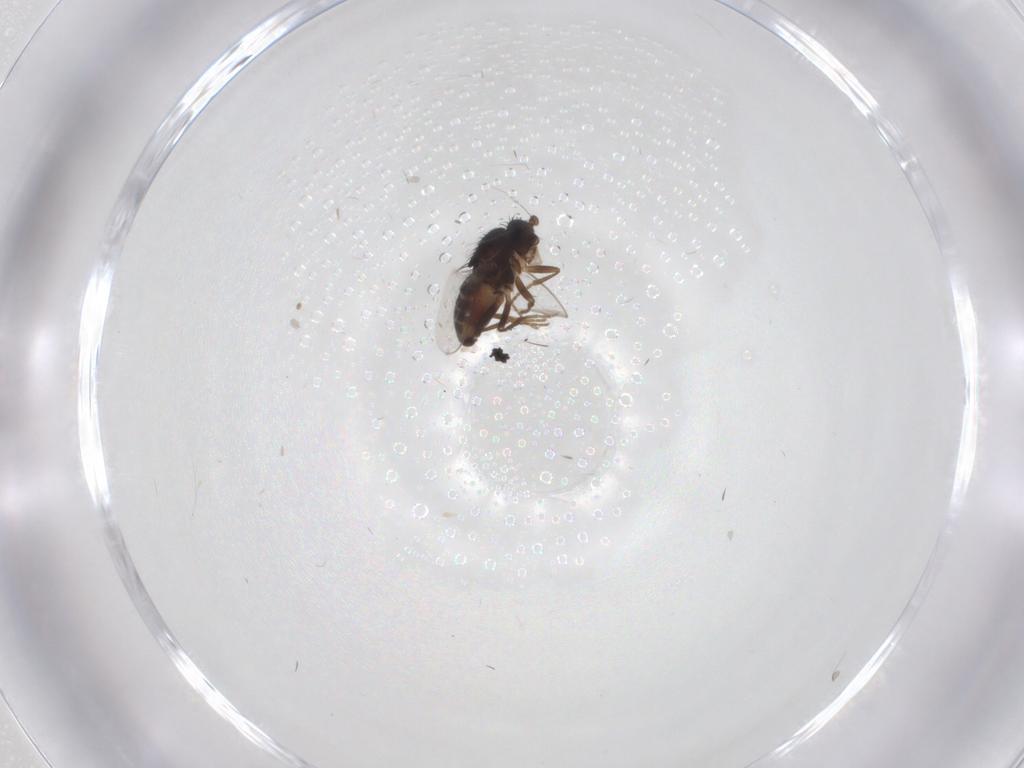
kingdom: Animalia
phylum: Arthropoda
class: Insecta
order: Diptera
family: Sphaeroceridae
